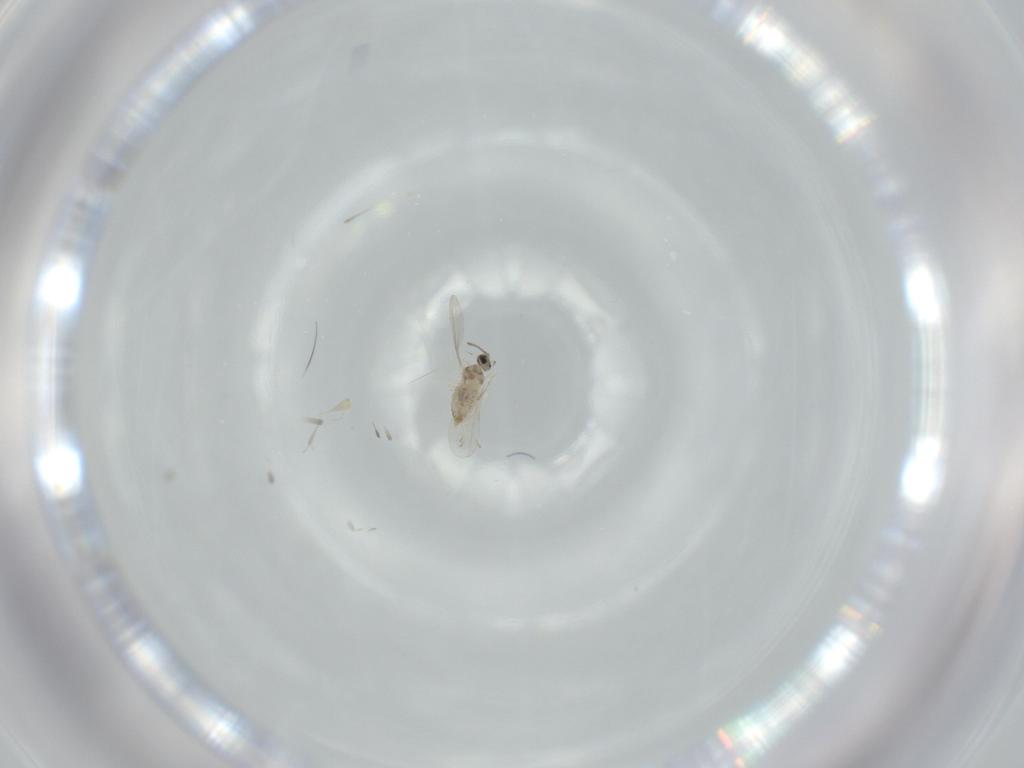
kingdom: Animalia
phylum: Arthropoda
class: Insecta
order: Diptera
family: Cecidomyiidae
